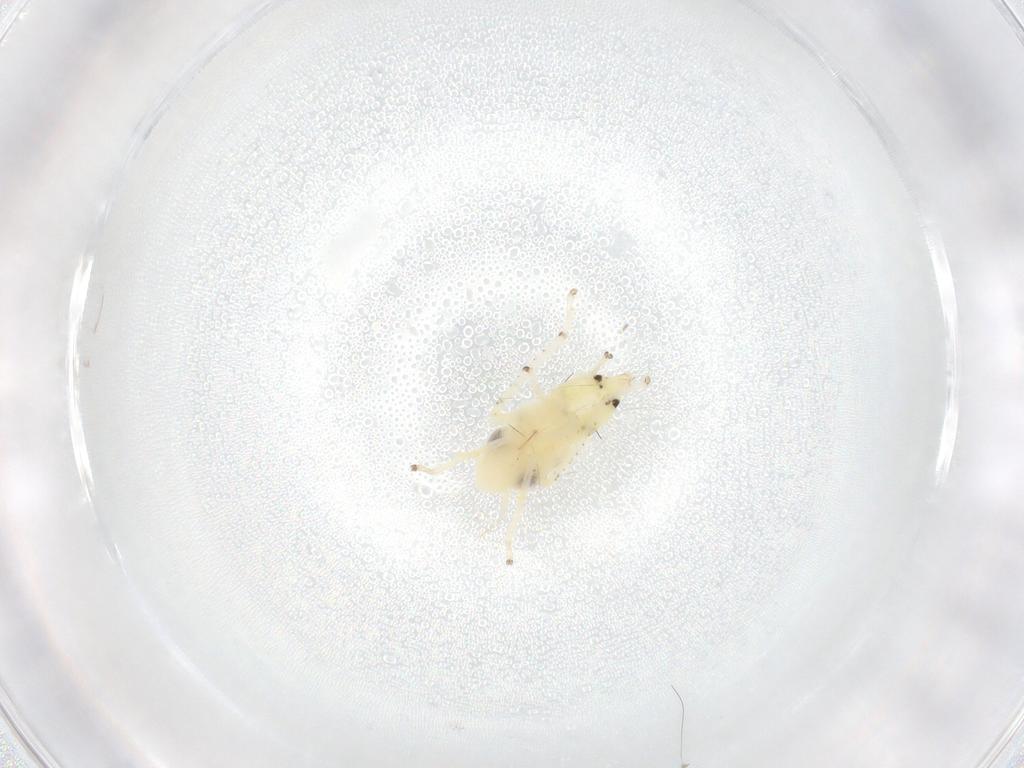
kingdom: Animalia
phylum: Arthropoda
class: Insecta
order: Hemiptera
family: Cicadellidae
